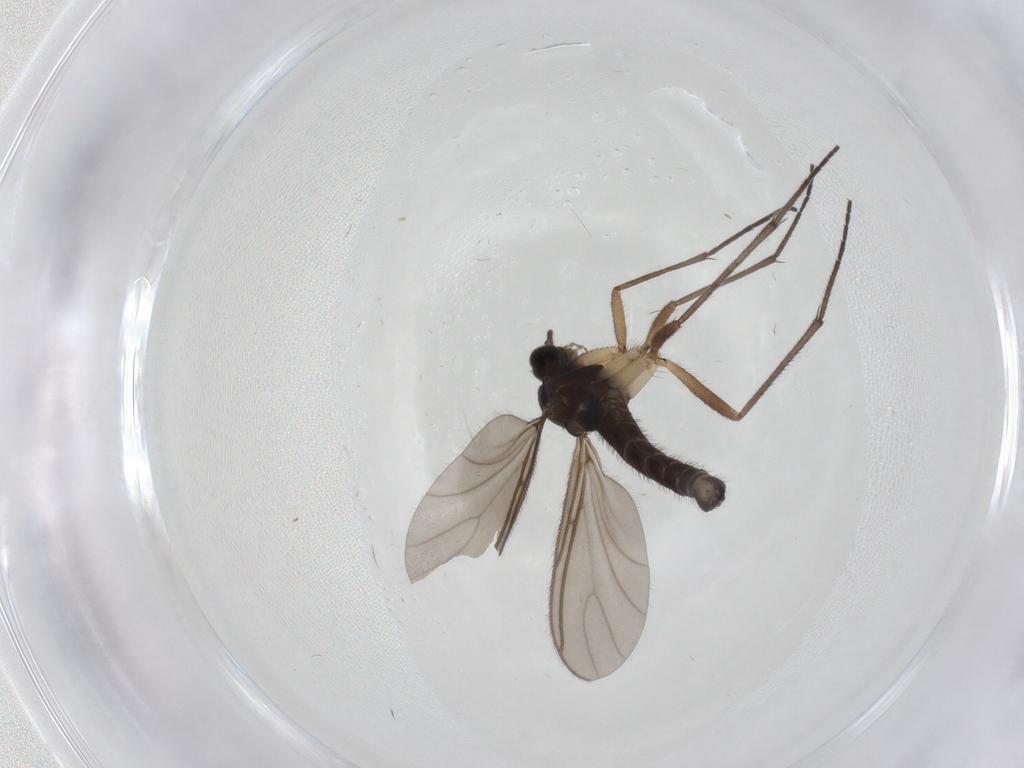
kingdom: Animalia
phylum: Arthropoda
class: Insecta
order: Diptera
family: Sciaridae
